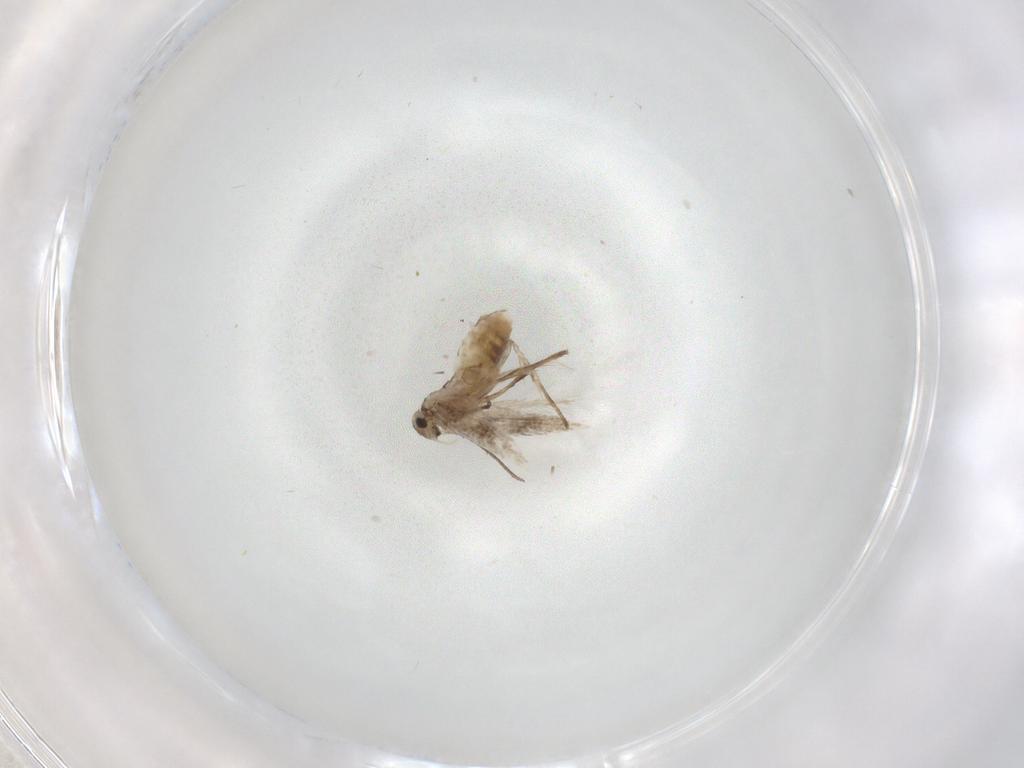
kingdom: Animalia
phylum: Arthropoda
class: Insecta
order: Lepidoptera
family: Nymphalidae
